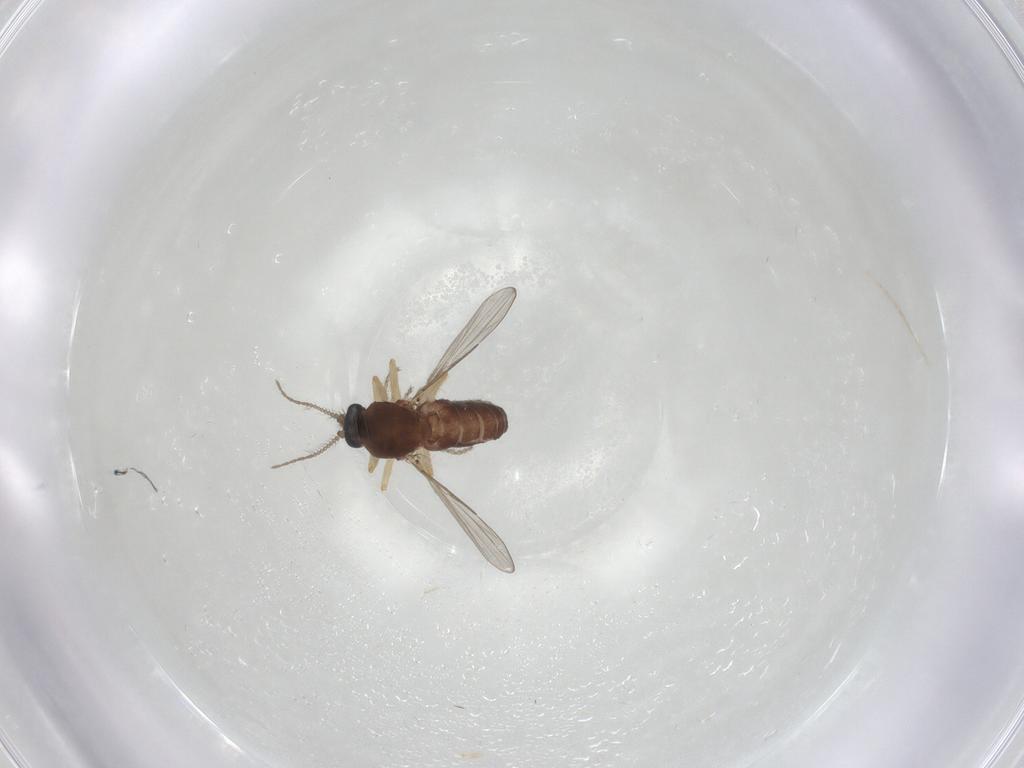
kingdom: Animalia
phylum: Arthropoda
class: Insecta
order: Diptera
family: Ceratopogonidae
